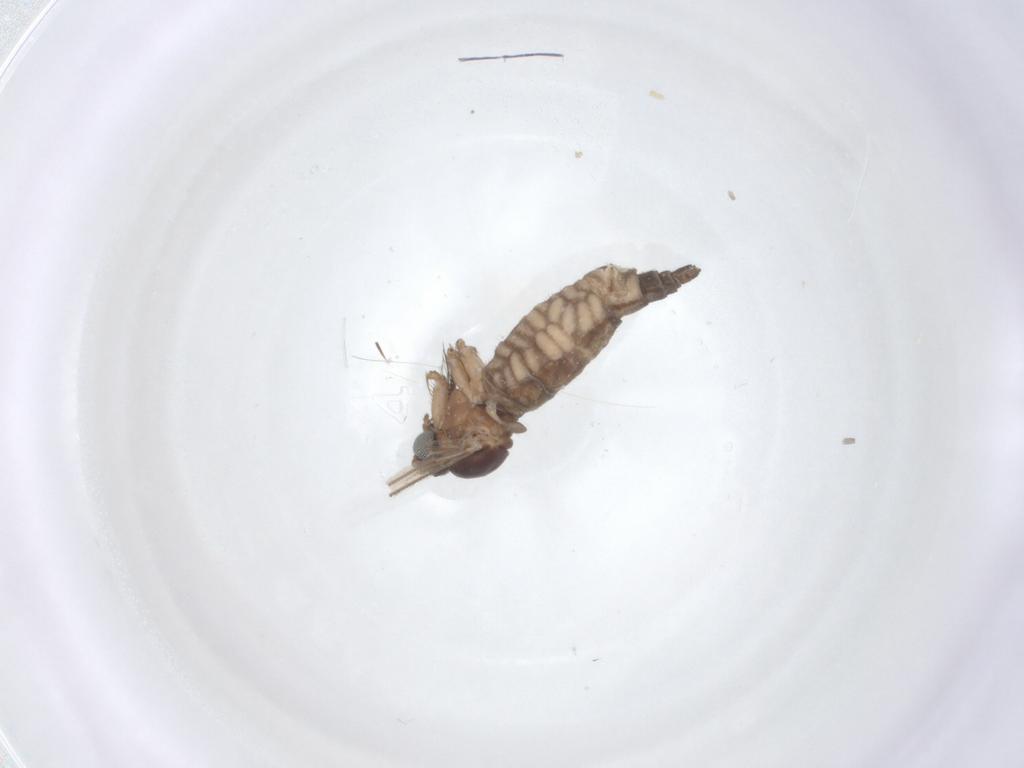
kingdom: Animalia
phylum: Arthropoda
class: Insecta
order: Diptera
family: Sciaridae
